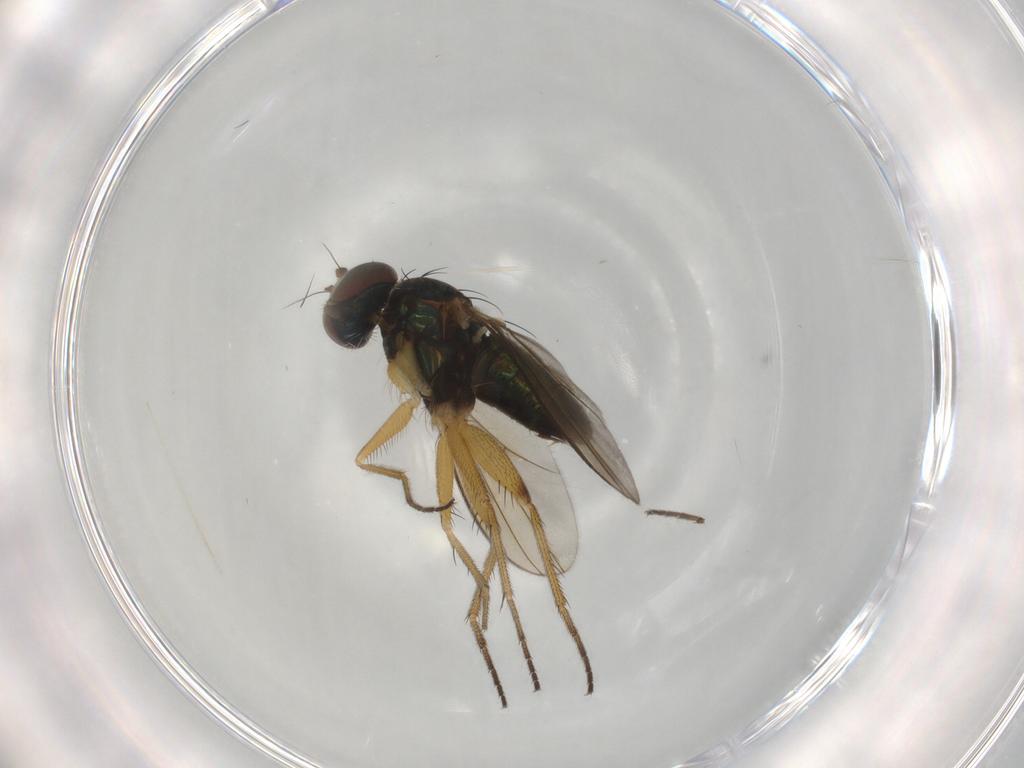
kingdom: Animalia
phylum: Arthropoda
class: Insecta
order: Diptera
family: Dolichopodidae
